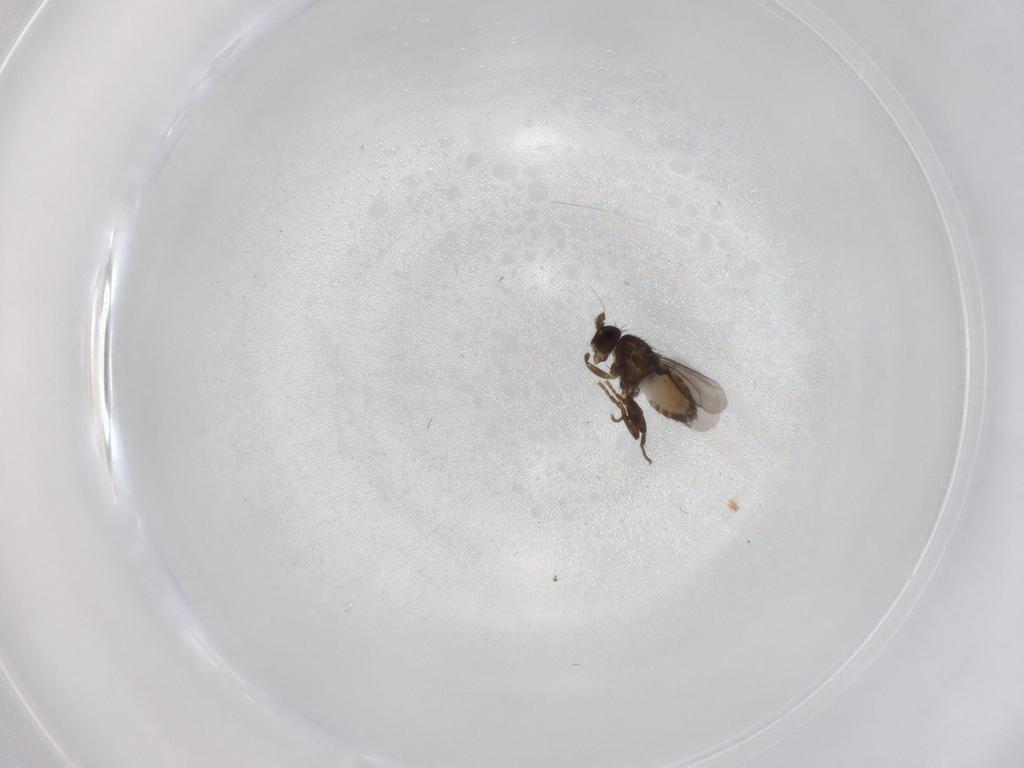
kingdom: Animalia
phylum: Arthropoda
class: Insecta
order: Diptera
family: Sphaeroceridae
